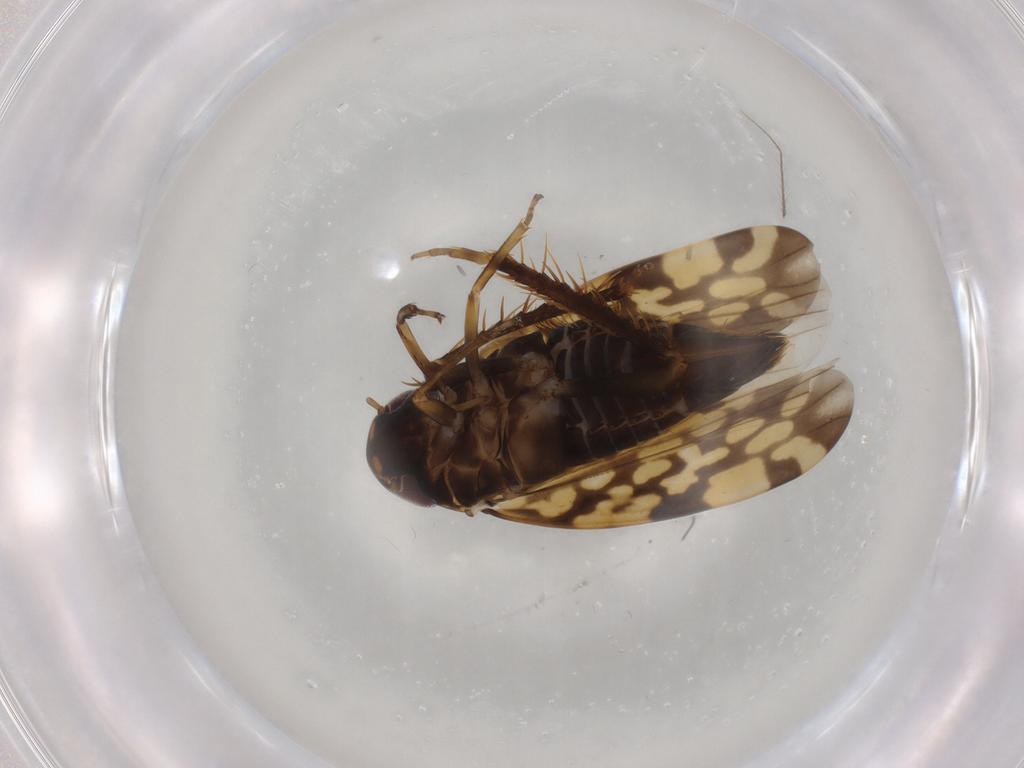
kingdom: Animalia
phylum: Arthropoda
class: Insecta
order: Hemiptera
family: Cicadellidae
